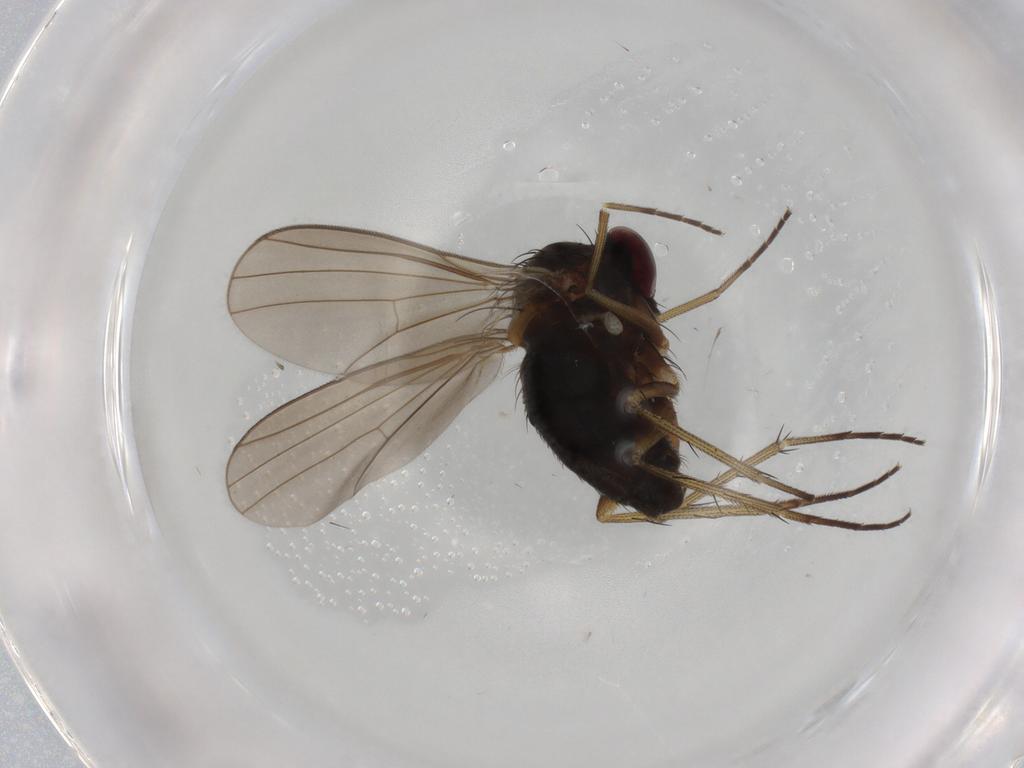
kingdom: Animalia
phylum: Arthropoda
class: Insecta
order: Diptera
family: Dolichopodidae
